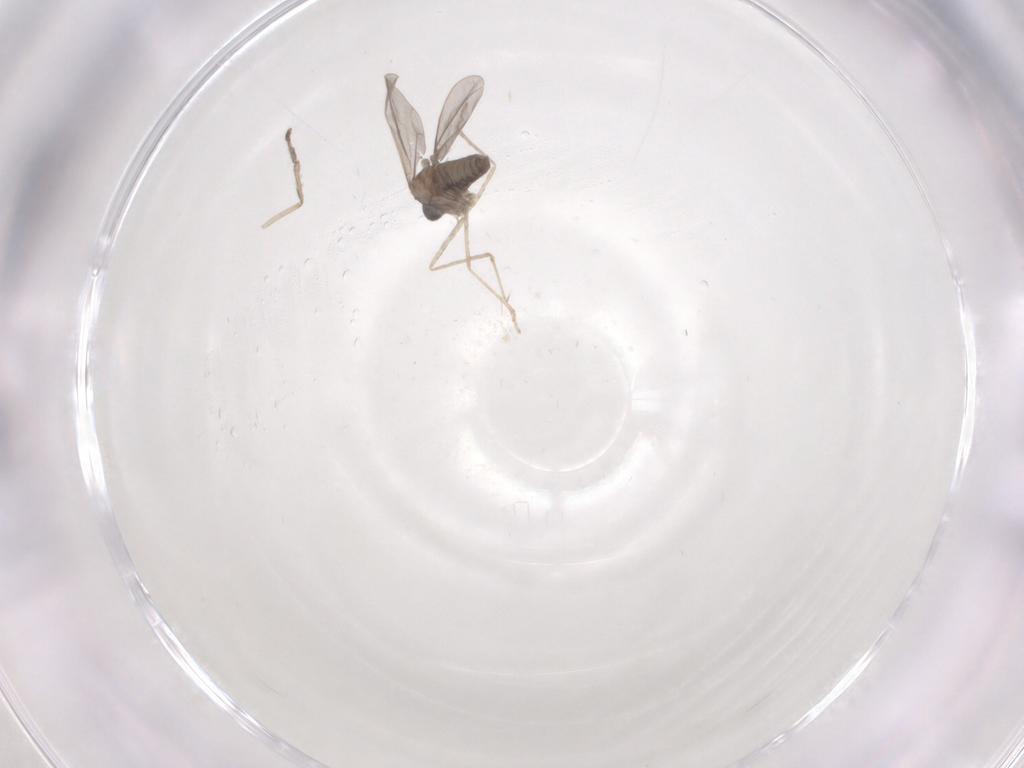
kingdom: Animalia
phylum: Arthropoda
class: Insecta
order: Diptera
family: Cecidomyiidae
